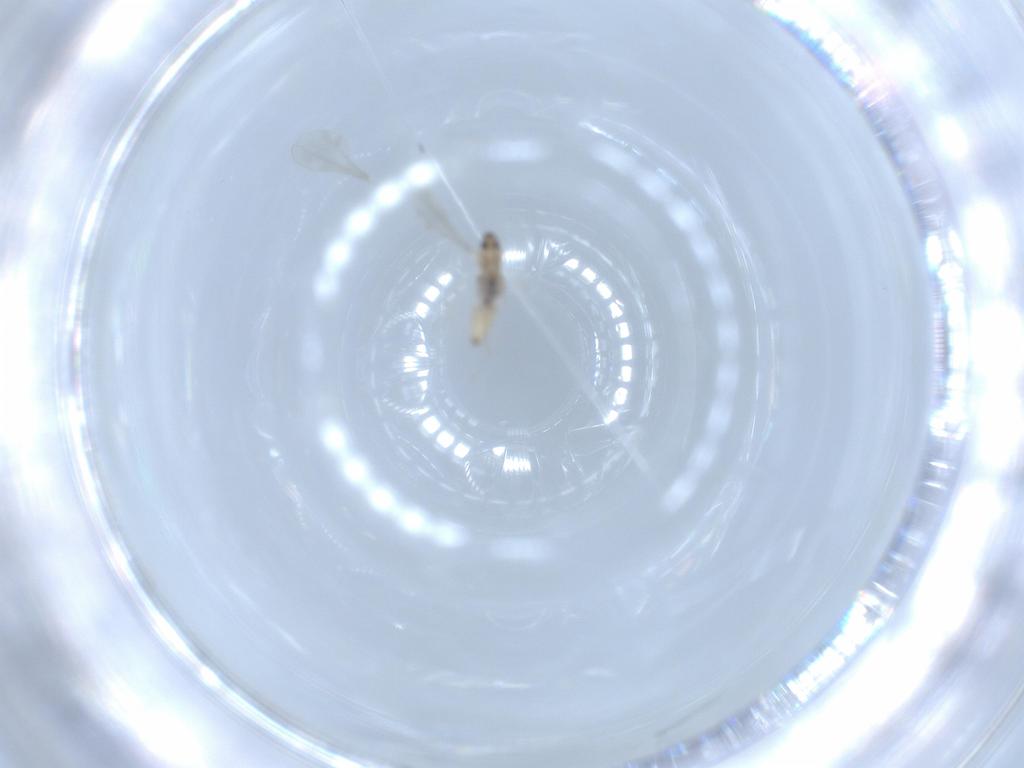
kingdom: Animalia
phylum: Arthropoda
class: Insecta
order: Diptera
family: Cecidomyiidae
